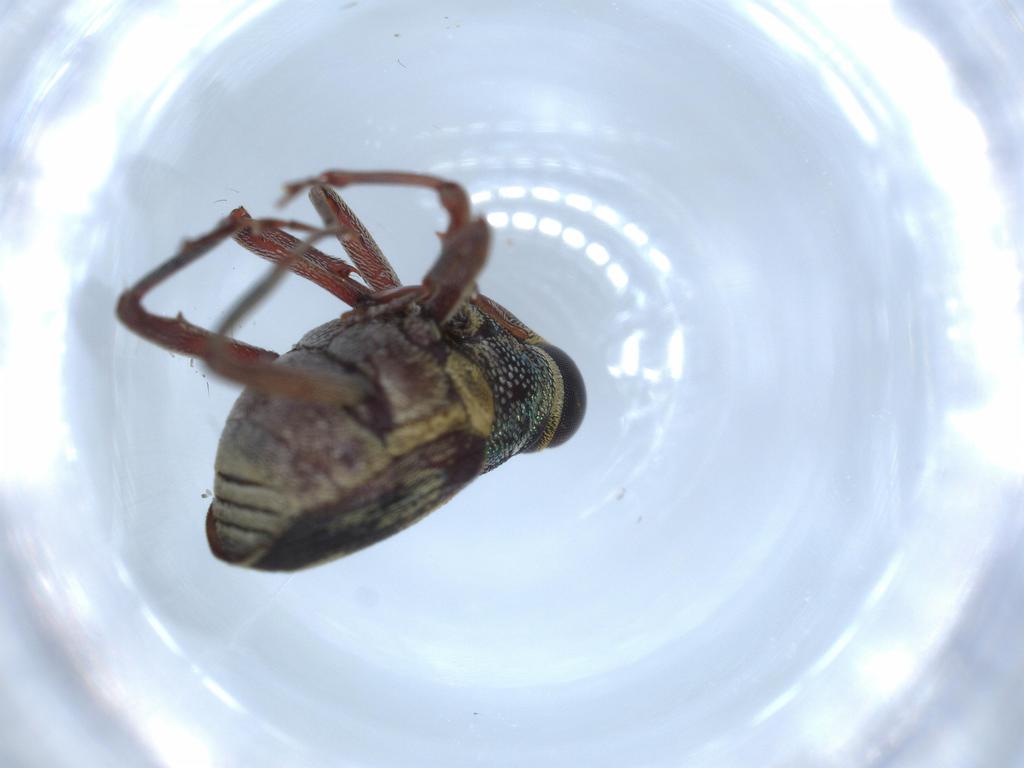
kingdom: Animalia
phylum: Arthropoda
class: Insecta
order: Coleoptera
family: Curculionidae
